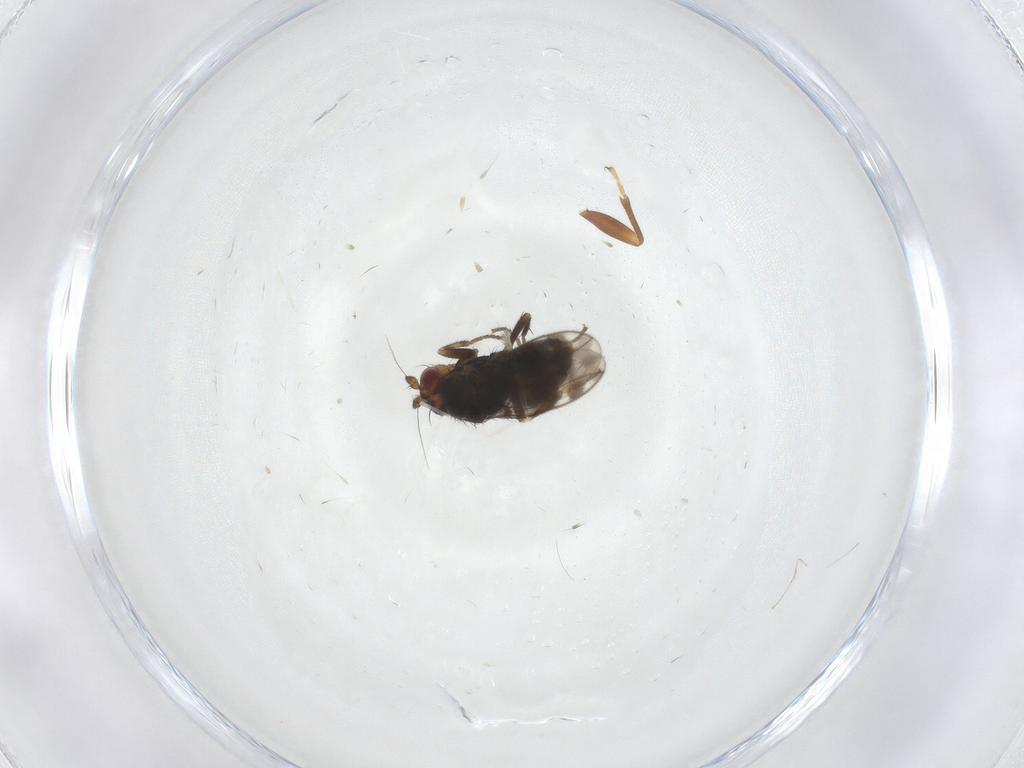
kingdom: Animalia
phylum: Arthropoda
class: Insecta
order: Diptera
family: Sphaeroceridae
